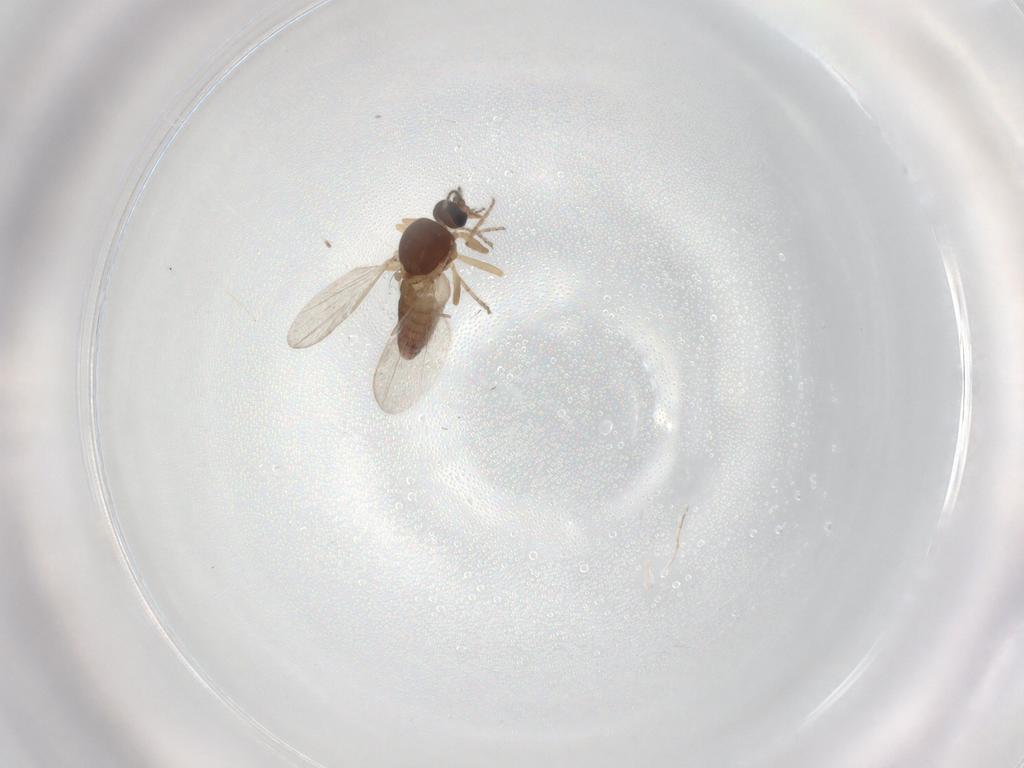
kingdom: Animalia
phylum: Arthropoda
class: Insecta
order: Diptera
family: Ceratopogonidae
